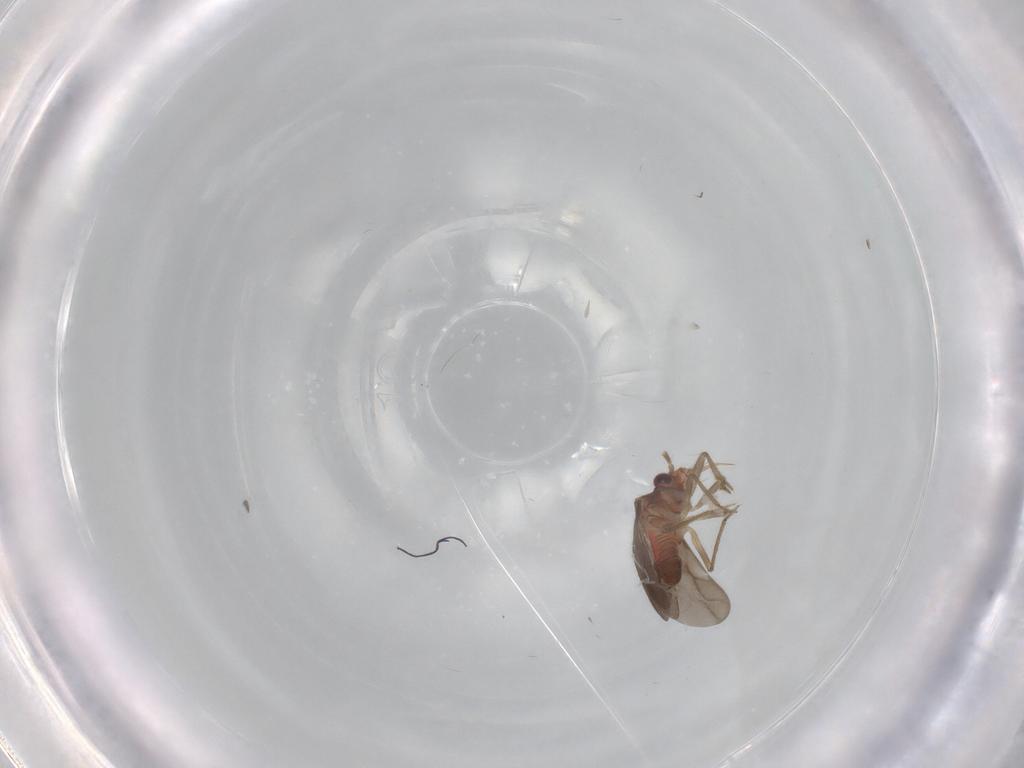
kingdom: Animalia
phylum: Arthropoda
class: Insecta
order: Hemiptera
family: Ceratocombidae
